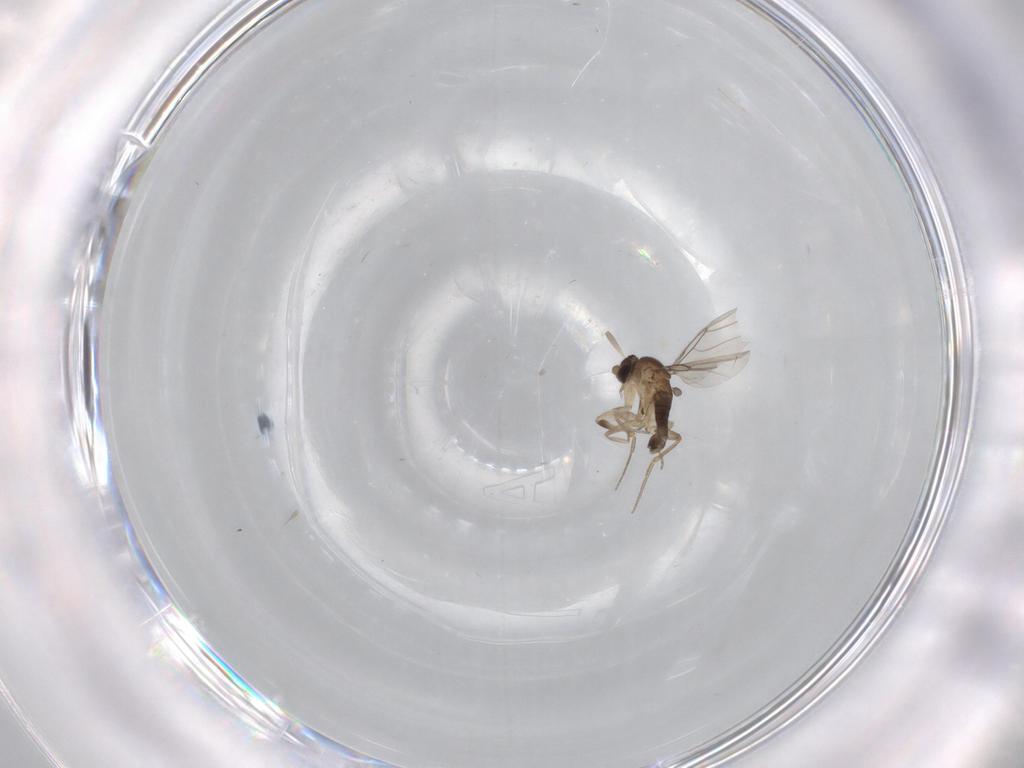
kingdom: Animalia
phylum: Arthropoda
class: Insecta
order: Diptera
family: Phoridae
